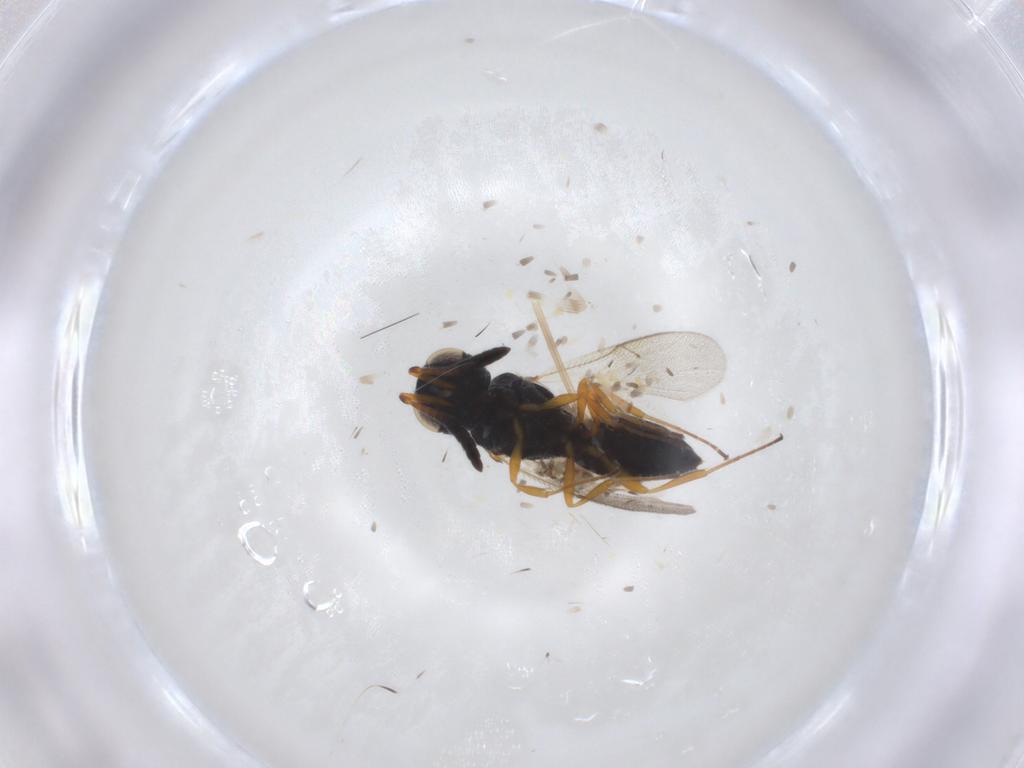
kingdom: Animalia
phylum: Arthropoda
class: Insecta
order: Hymenoptera
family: Scelionidae
